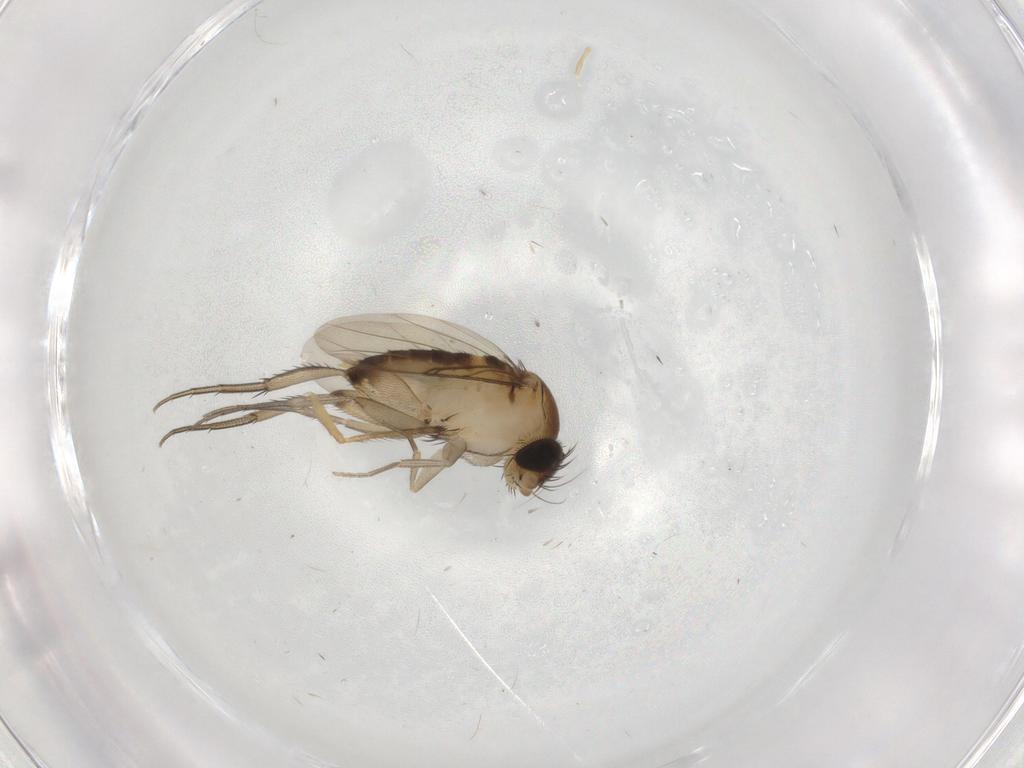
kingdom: Animalia
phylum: Arthropoda
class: Insecta
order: Diptera
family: Phoridae
